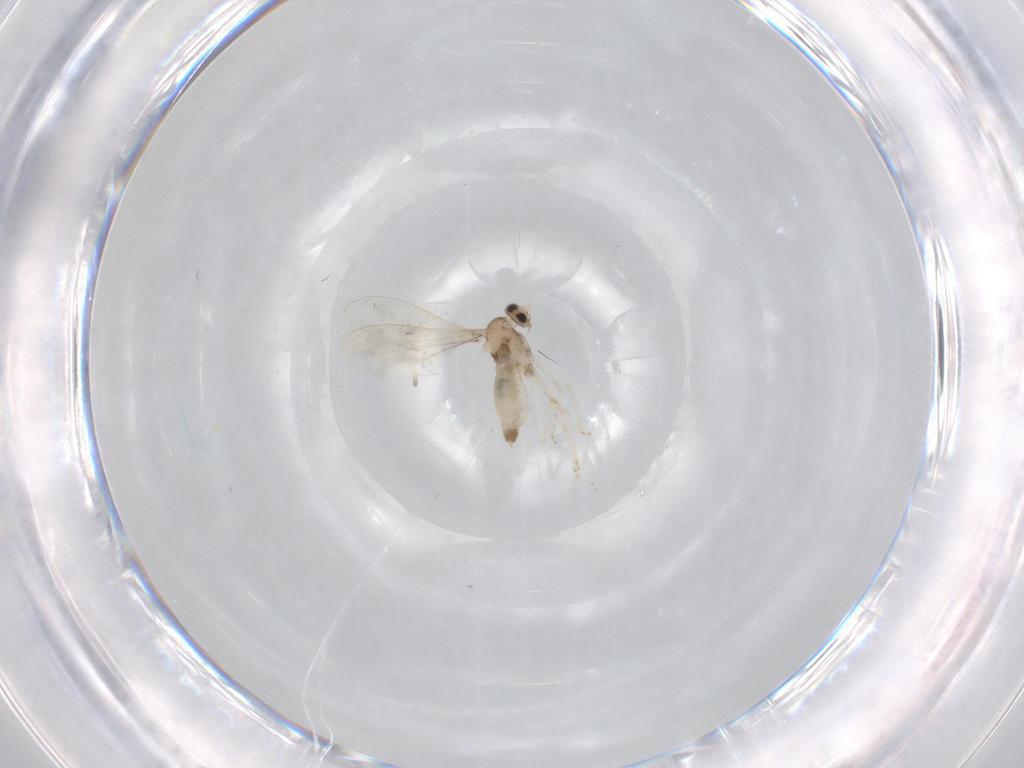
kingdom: Animalia
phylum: Arthropoda
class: Insecta
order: Diptera
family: Cecidomyiidae
